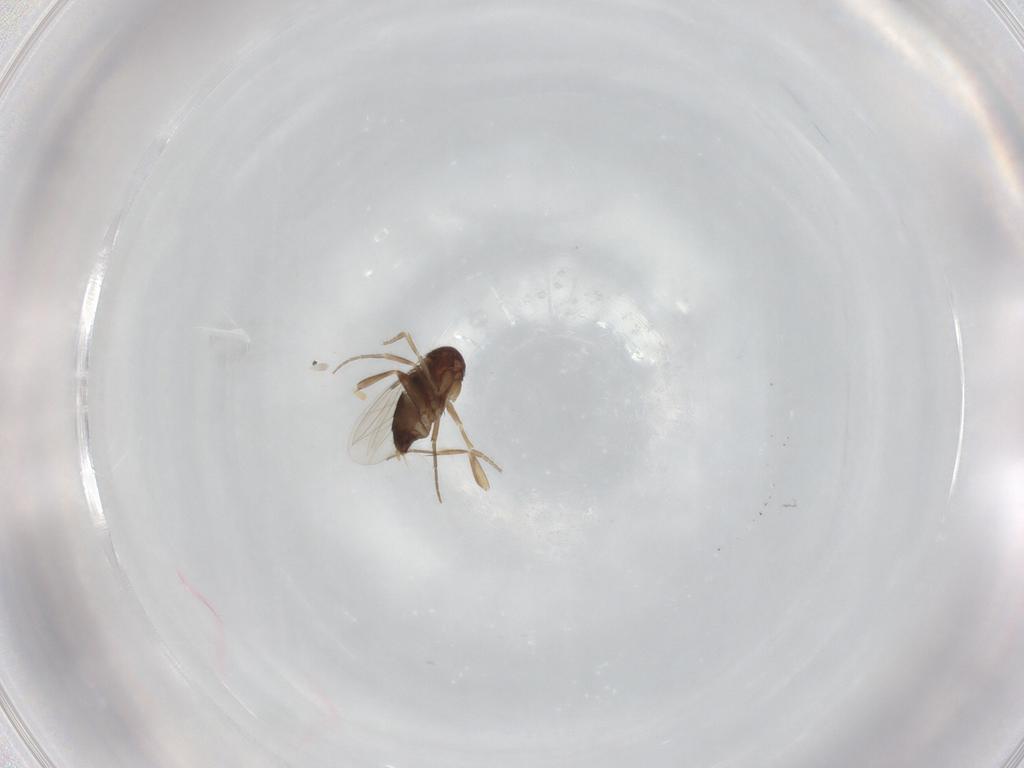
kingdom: Animalia
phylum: Arthropoda
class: Insecta
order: Diptera
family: Phoridae
